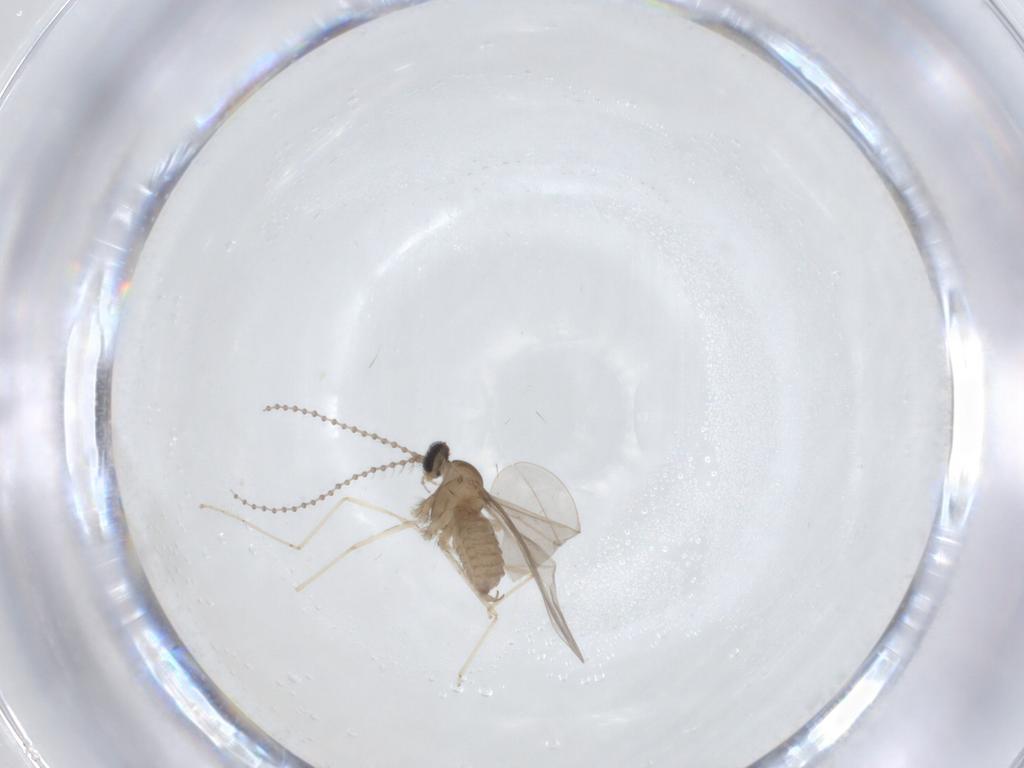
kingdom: Animalia
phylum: Arthropoda
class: Insecta
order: Diptera
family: Cecidomyiidae
